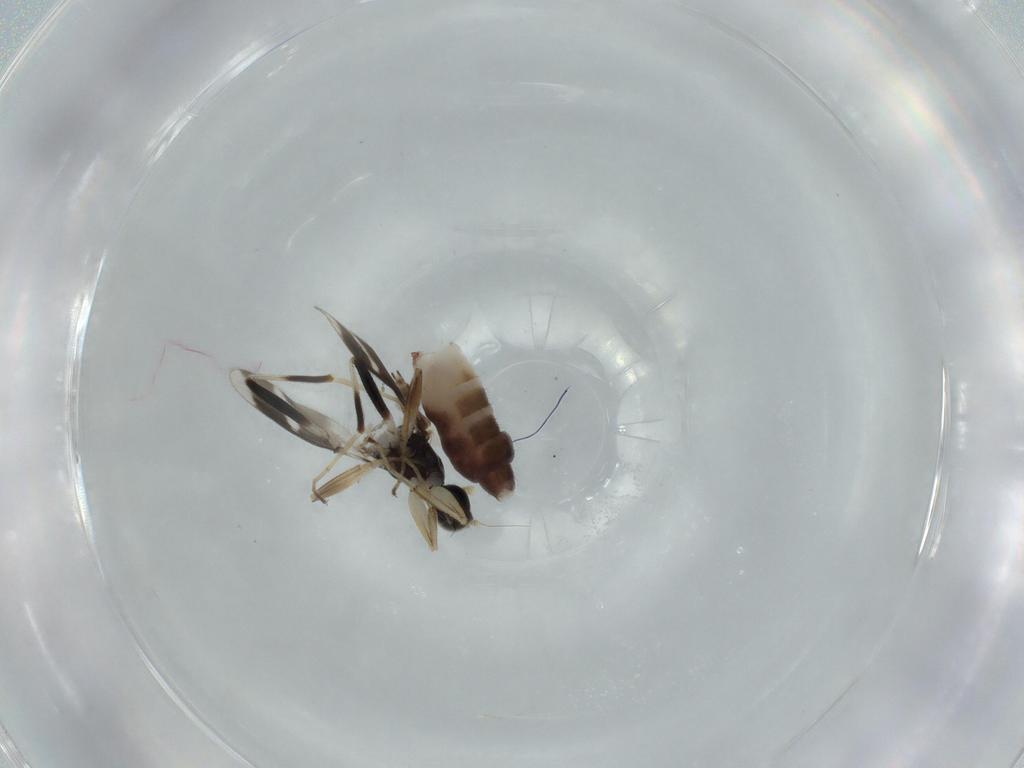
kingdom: Animalia
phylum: Arthropoda
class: Insecta
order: Diptera
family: Hybotidae
